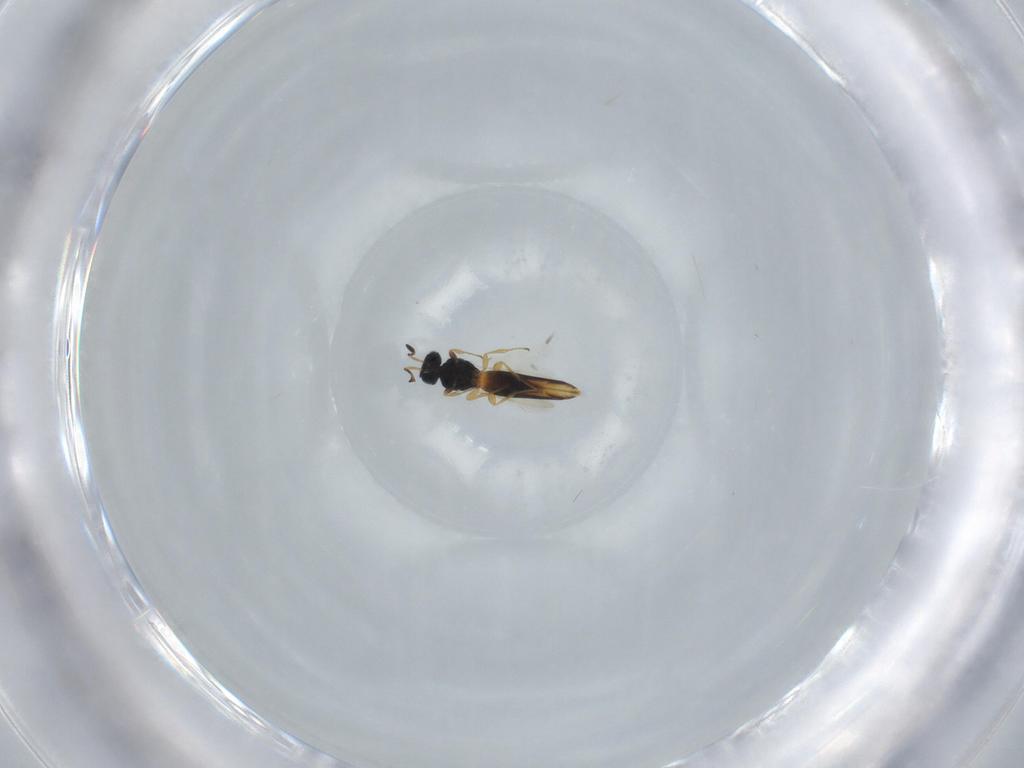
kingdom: Animalia
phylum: Arthropoda
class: Insecta
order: Hymenoptera
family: Scelionidae
